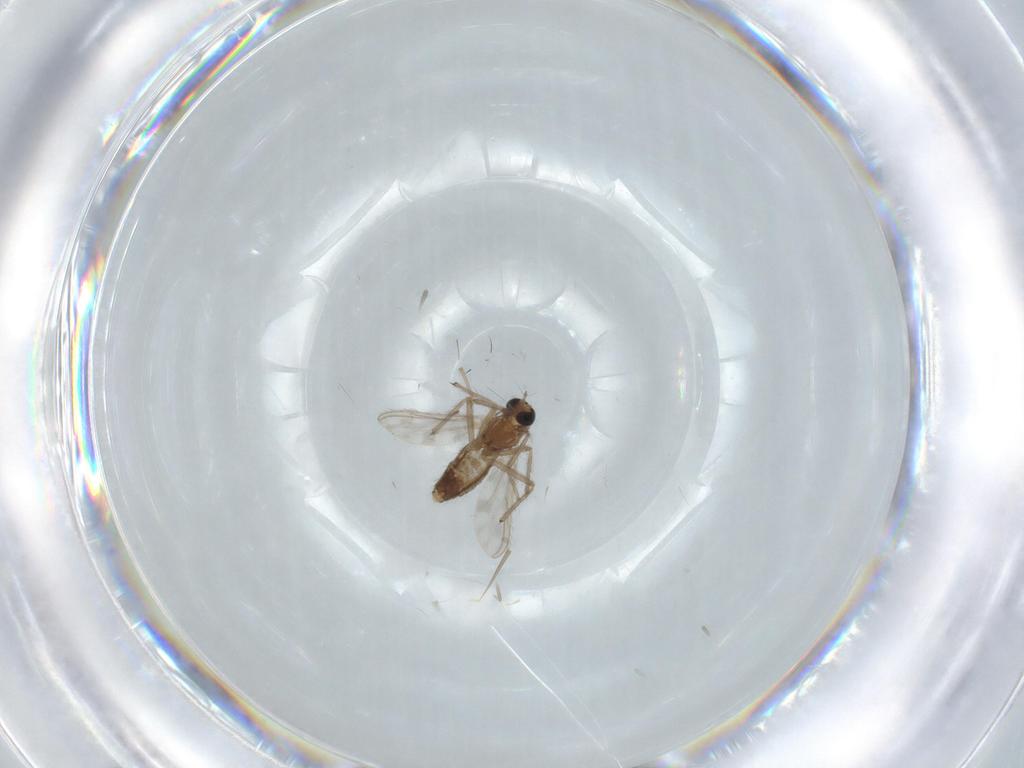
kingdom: Animalia
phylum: Arthropoda
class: Insecta
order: Diptera
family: Chironomidae
